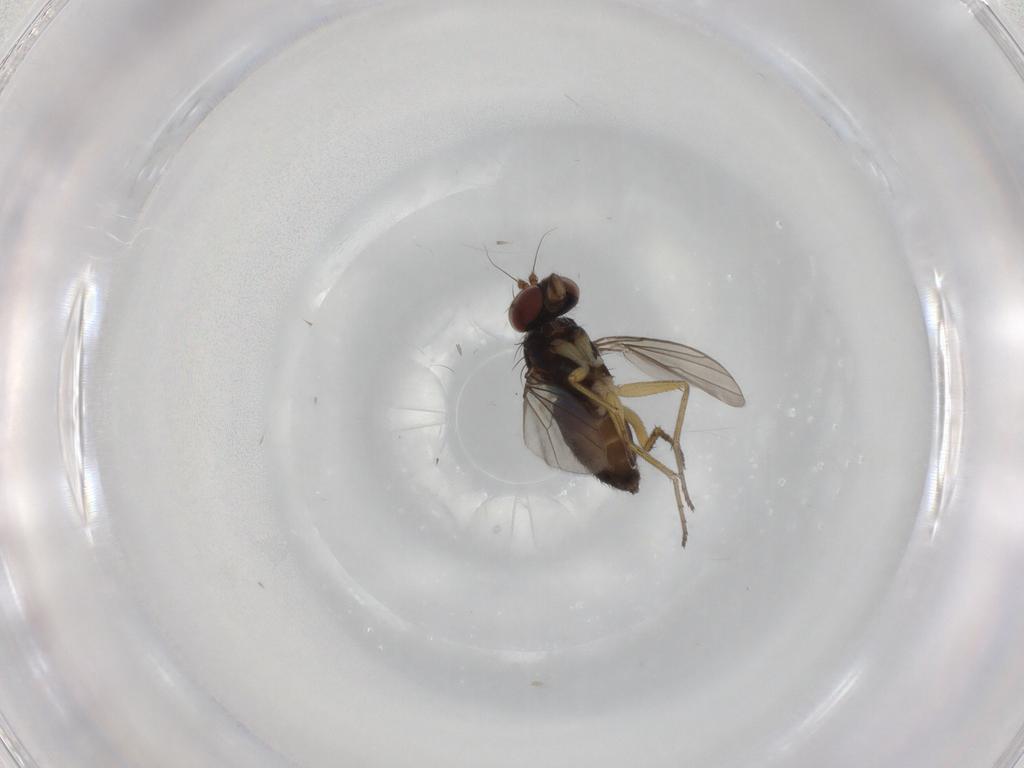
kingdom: Animalia
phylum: Arthropoda
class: Insecta
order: Diptera
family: Dolichopodidae
